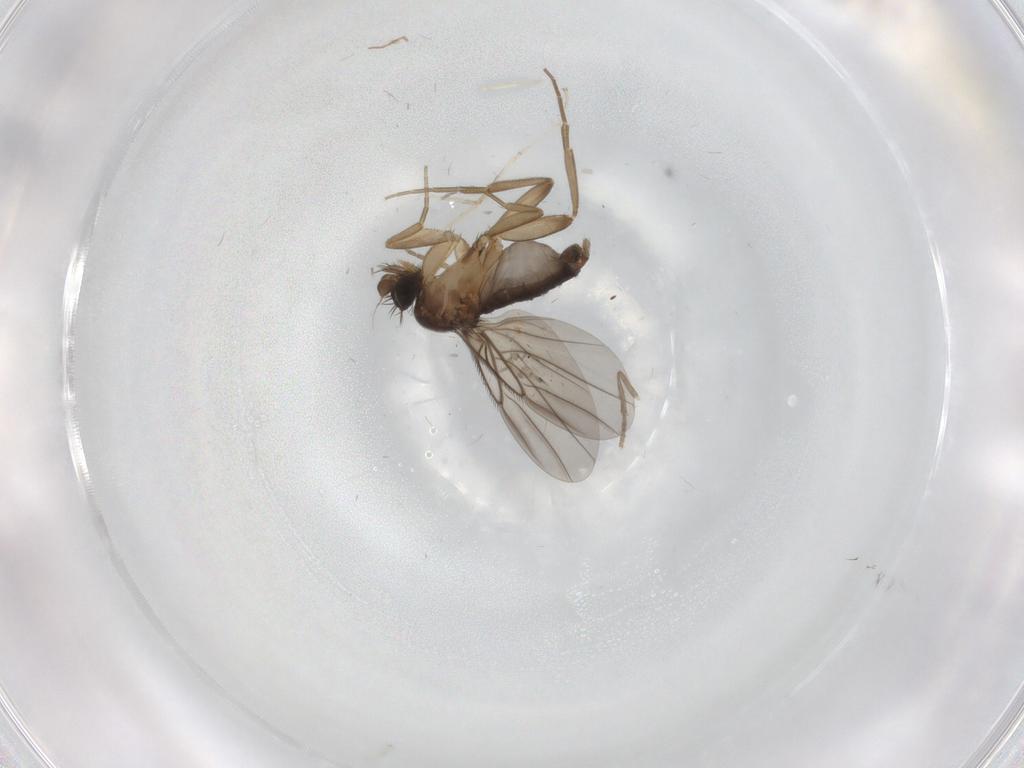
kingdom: Animalia
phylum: Arthropoda
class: Insecta
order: Diptera
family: Phoridae
